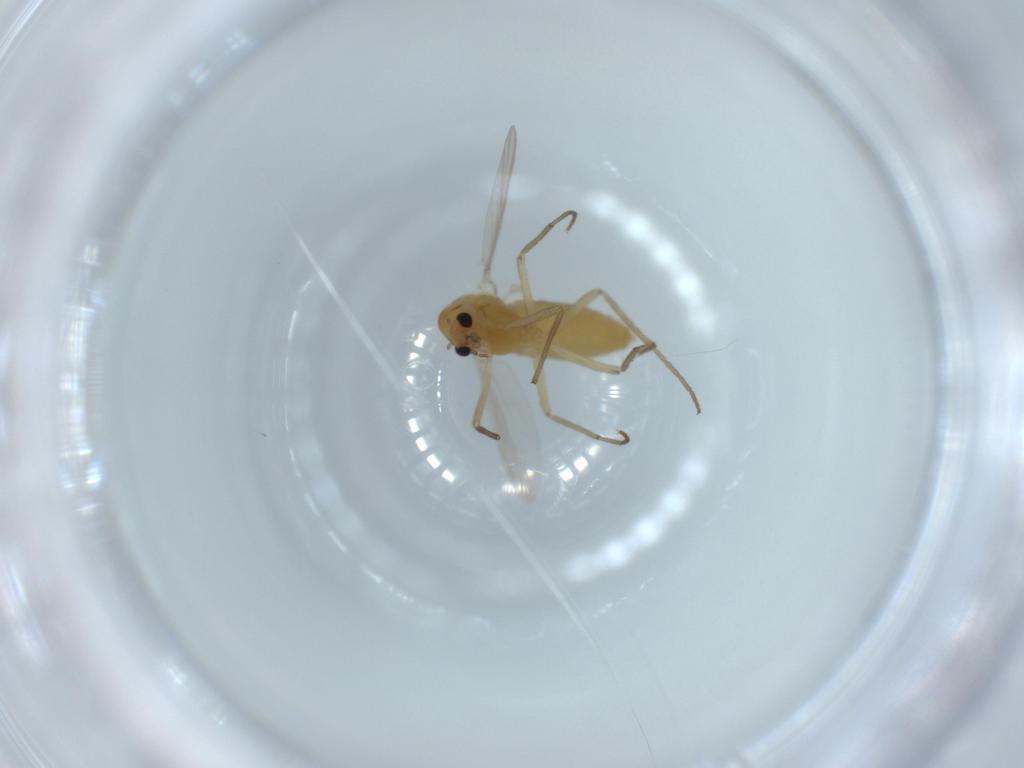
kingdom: Animalia
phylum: Arthropoda
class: Insecta
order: Diptera
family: Chironomidae
